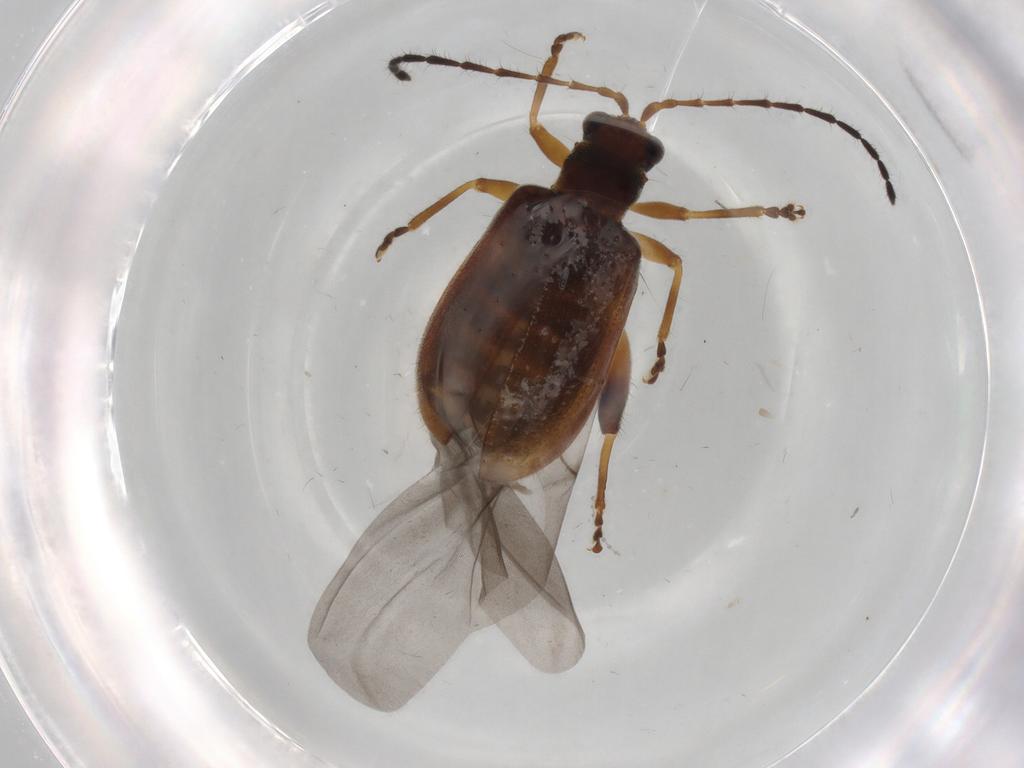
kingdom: Animalia
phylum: Arthropoda
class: Insecta
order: Coleoptera
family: Chrysomelidae
